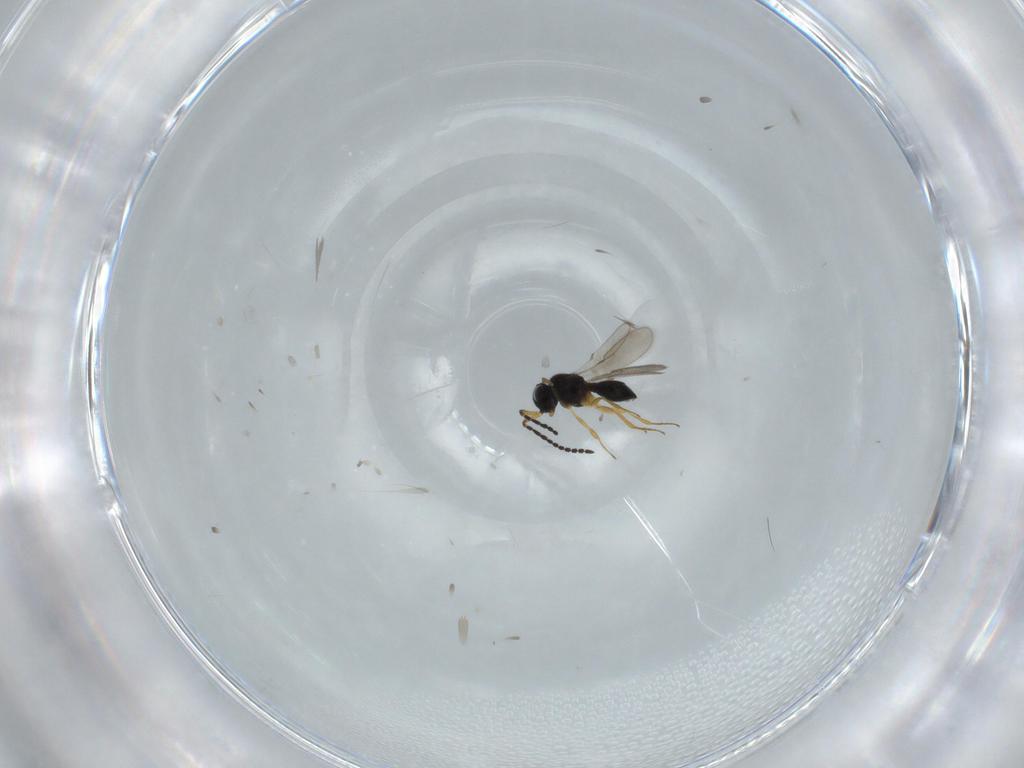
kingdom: Animalia
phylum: Arthropoda
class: Insecta
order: Hymenoptera
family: Scelionidae
